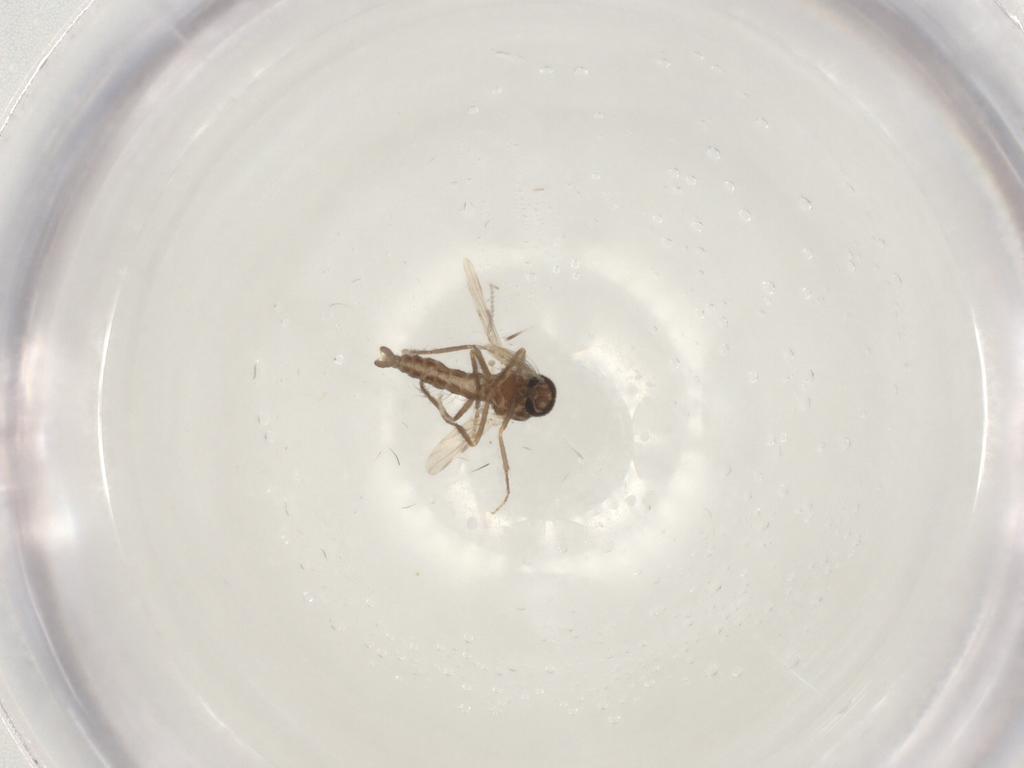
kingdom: Animalia
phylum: Arthropoda
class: Insecta
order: Diptera
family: Ceratopogonidae
